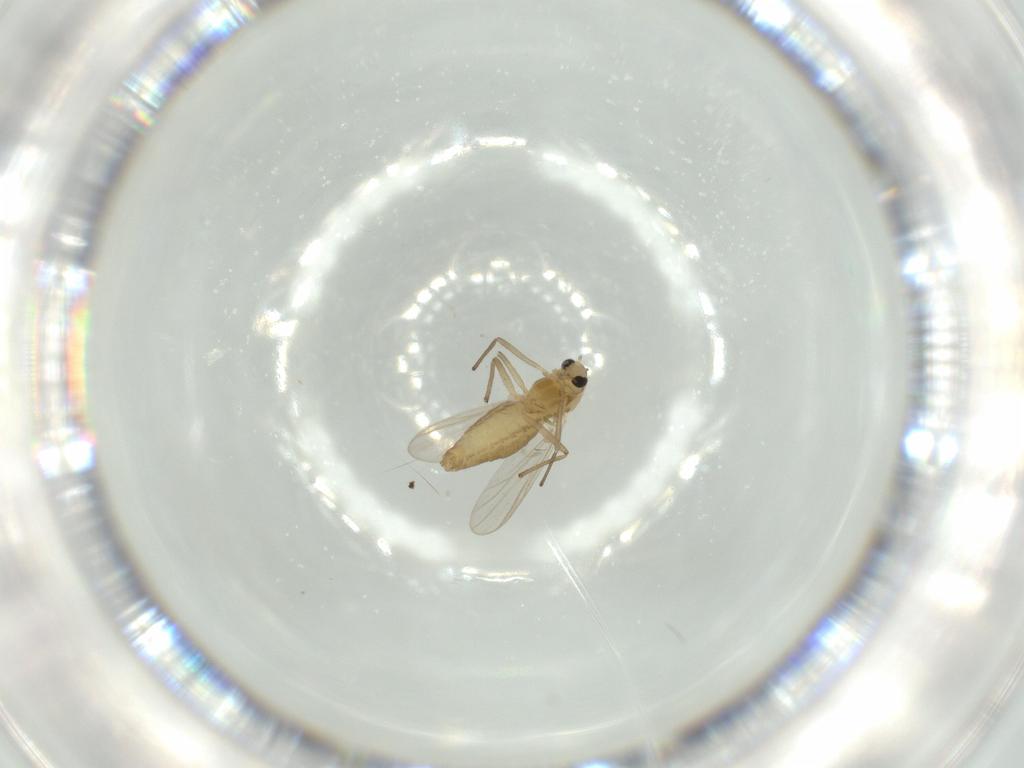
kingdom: Animalia
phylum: Arthropoda
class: Insecta
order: Diptera
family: Chironomidae
